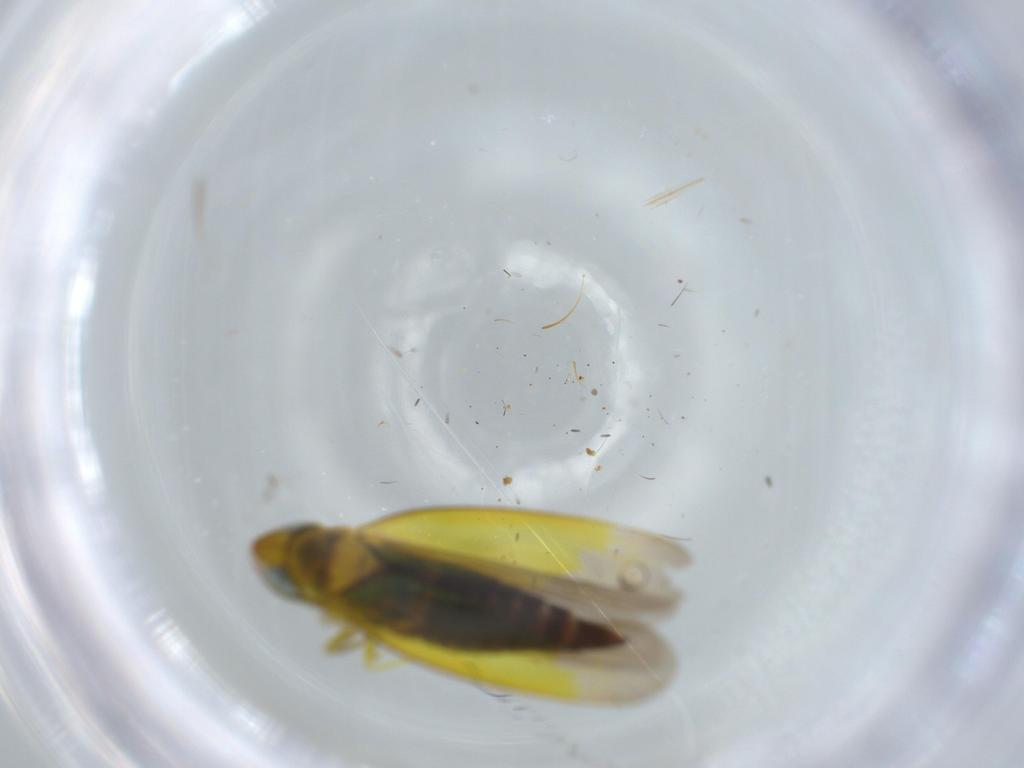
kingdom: Animalia
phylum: Arthropoda
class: Insecta
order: Hemiptera
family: Cicadellidae
